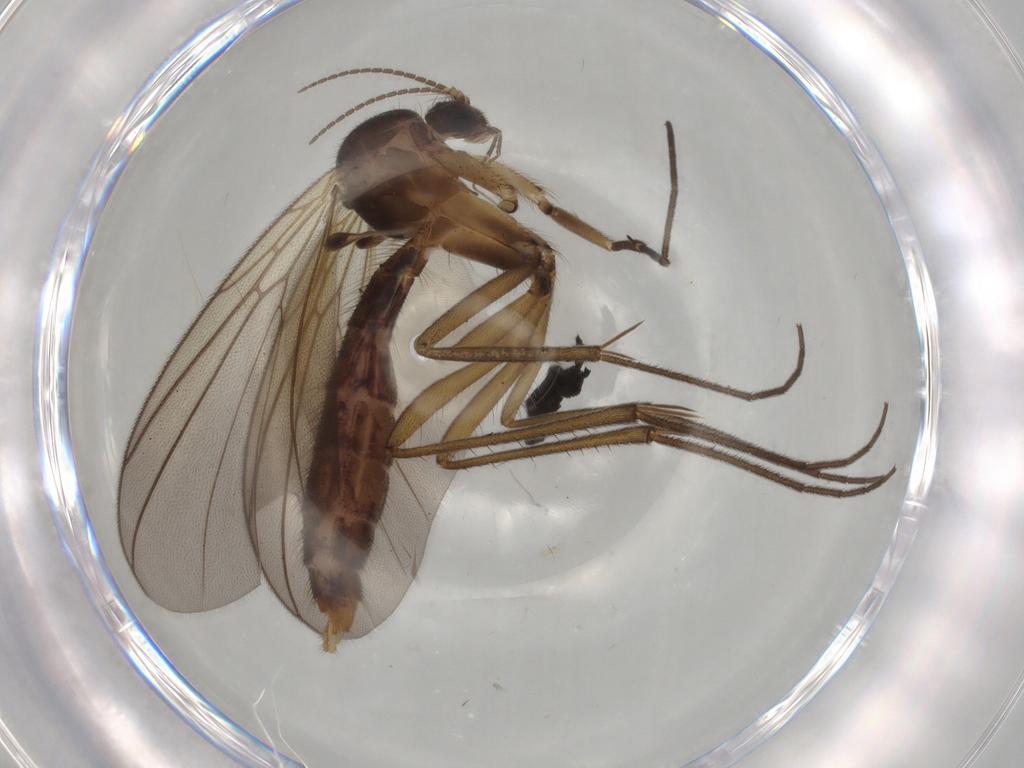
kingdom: Animalia
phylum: Arthropoda
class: Insecta
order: Diptera
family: Mycetophilidae
